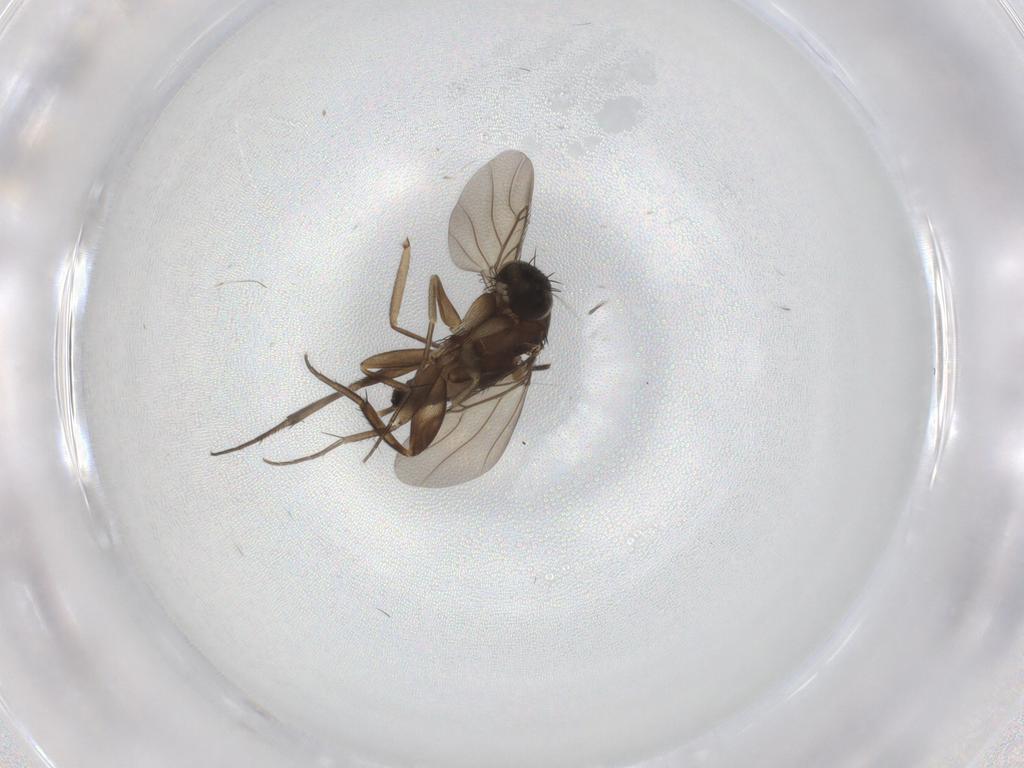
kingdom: Animalia
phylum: Arthropoda
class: Insecta
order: Diptera
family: Phoridae
